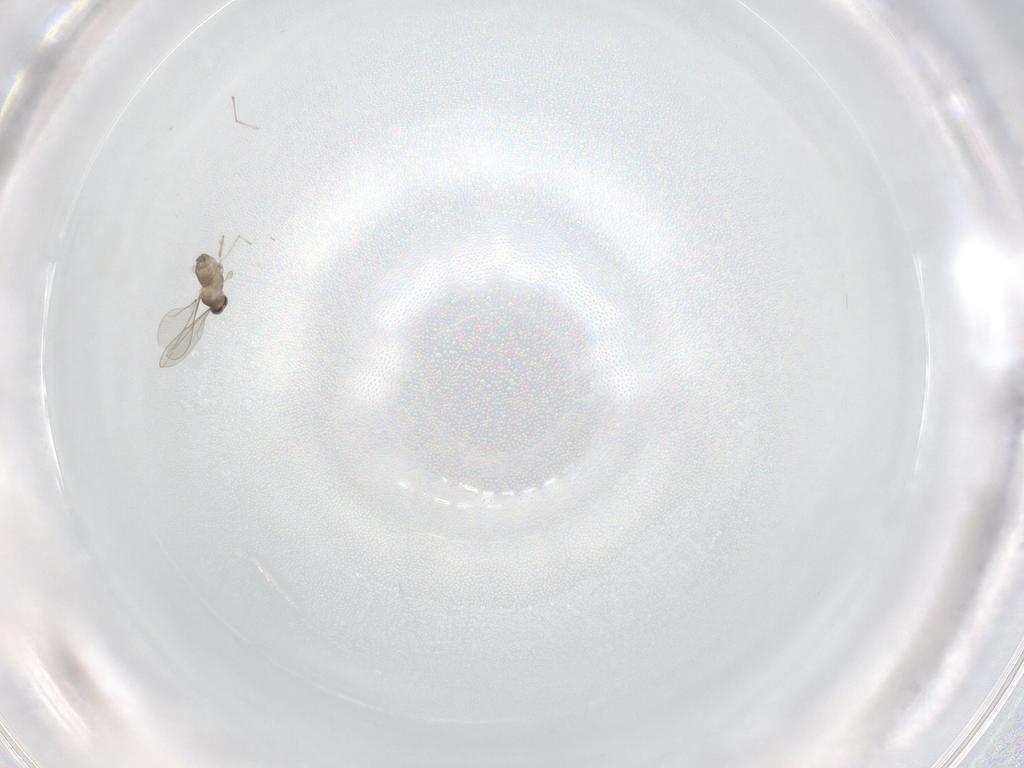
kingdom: Animalia
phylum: Arthropoda
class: Insecta
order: Diptera
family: Cecidomyiidae
